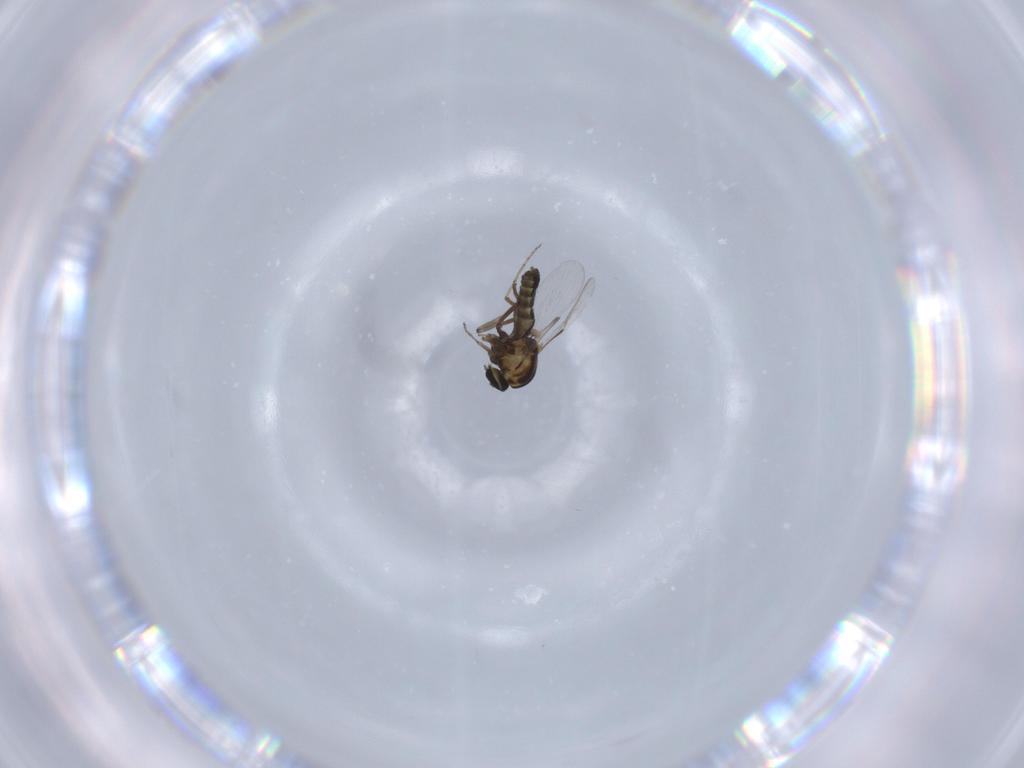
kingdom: Animalia
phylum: Arthropoda
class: Insecta
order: Diptera
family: Ceratopogonidae
